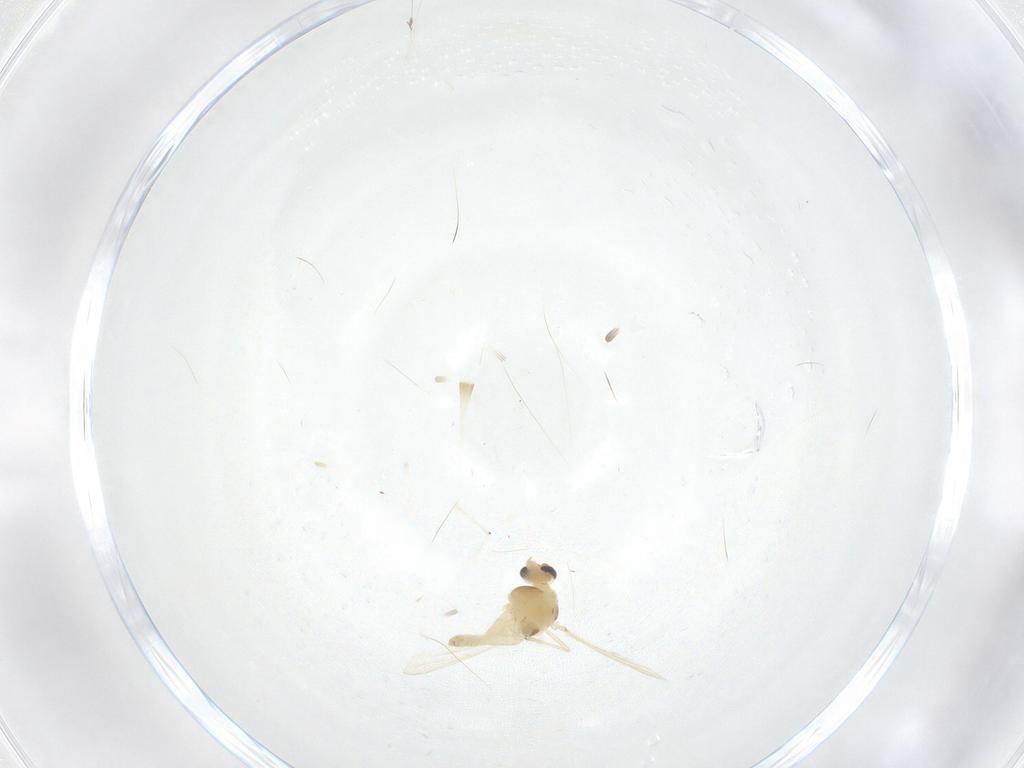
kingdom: Animalia
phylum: Arthropoda
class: Insecta
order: Diptera
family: Chironomidae
